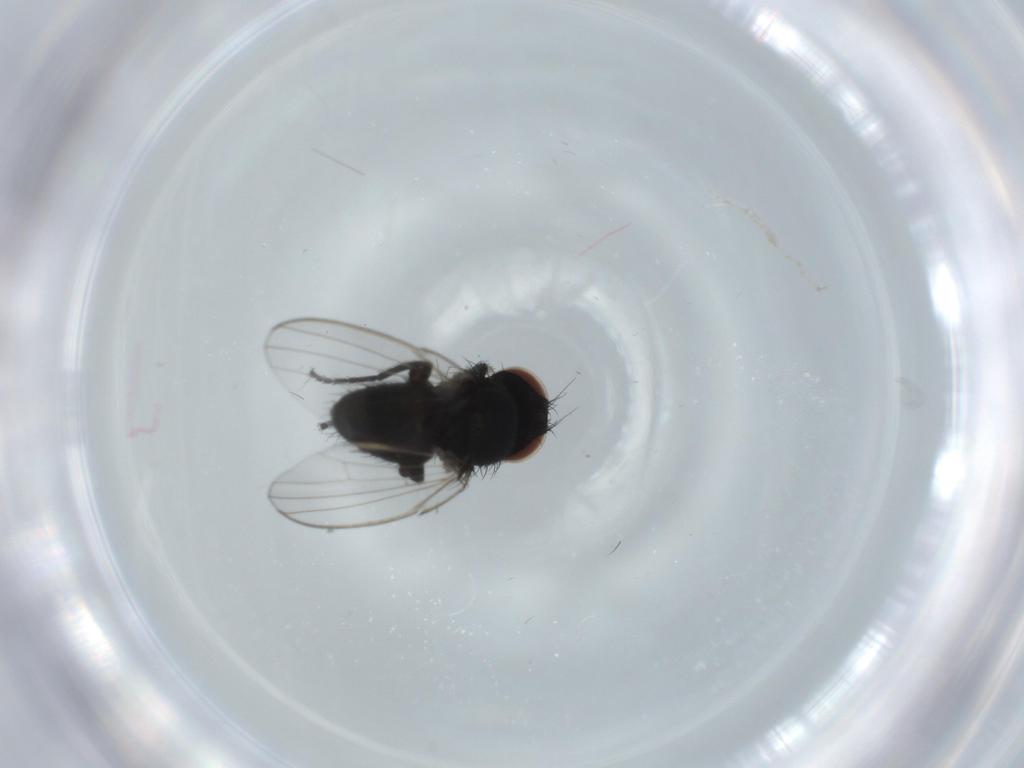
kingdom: Animalia
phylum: Arthropoda
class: Insecta
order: Diptera
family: Milichiidae
